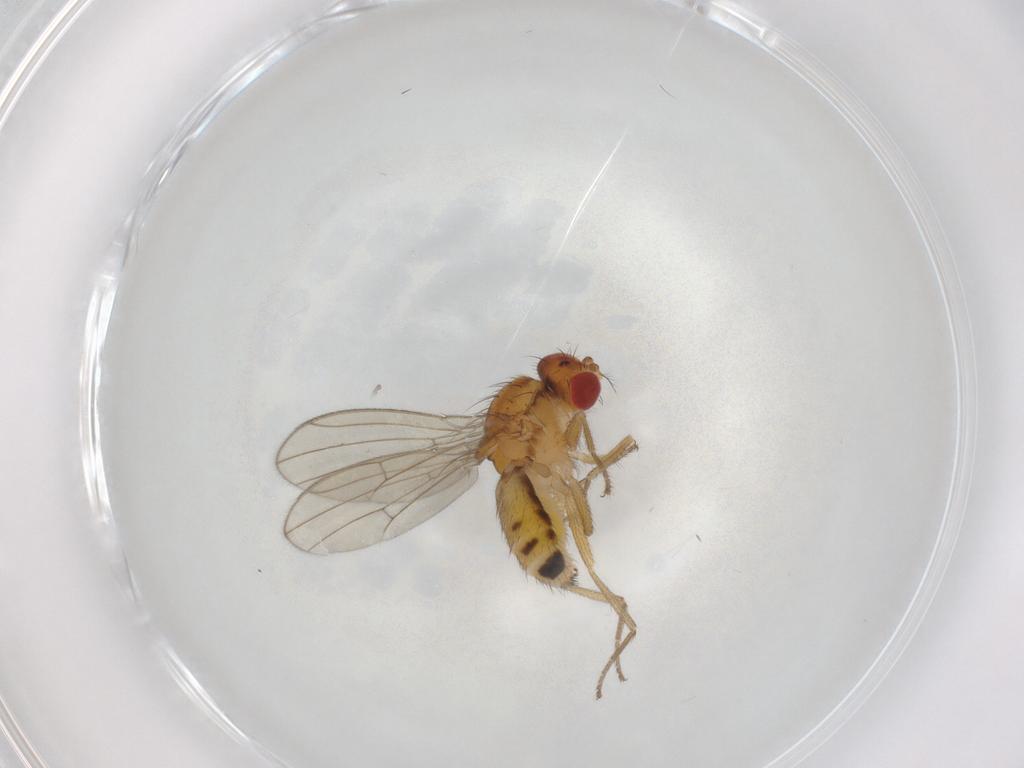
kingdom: Animalia
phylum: Arthropoda
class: Insecta
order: Diptera
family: Drosophilidae
